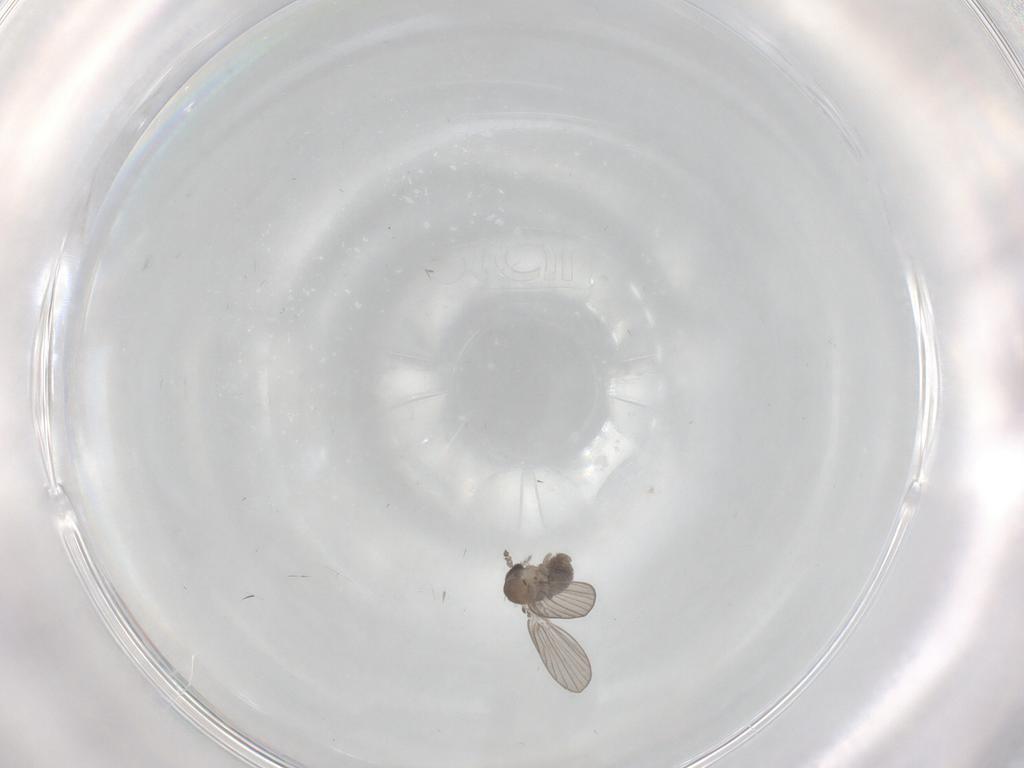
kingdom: Animalia
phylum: Arthropoda
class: Insecta
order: Diptera
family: Psychodidae
